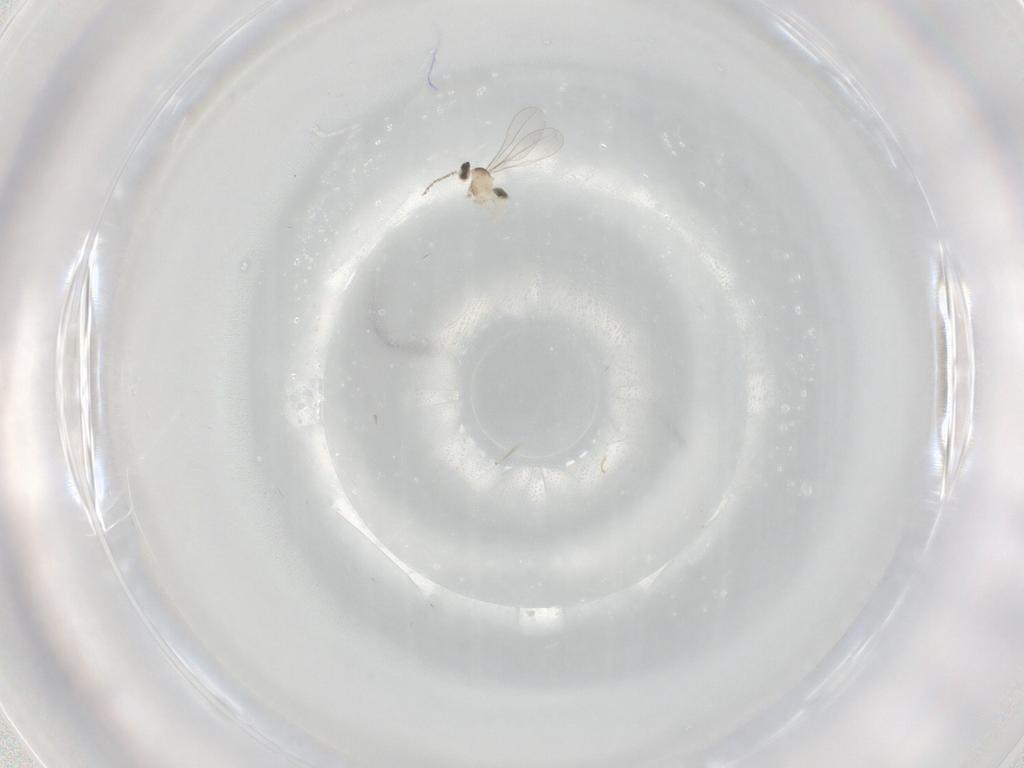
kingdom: Animalia
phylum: Arthropoda
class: Insecta
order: Diptera
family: Cecidomyiidae
